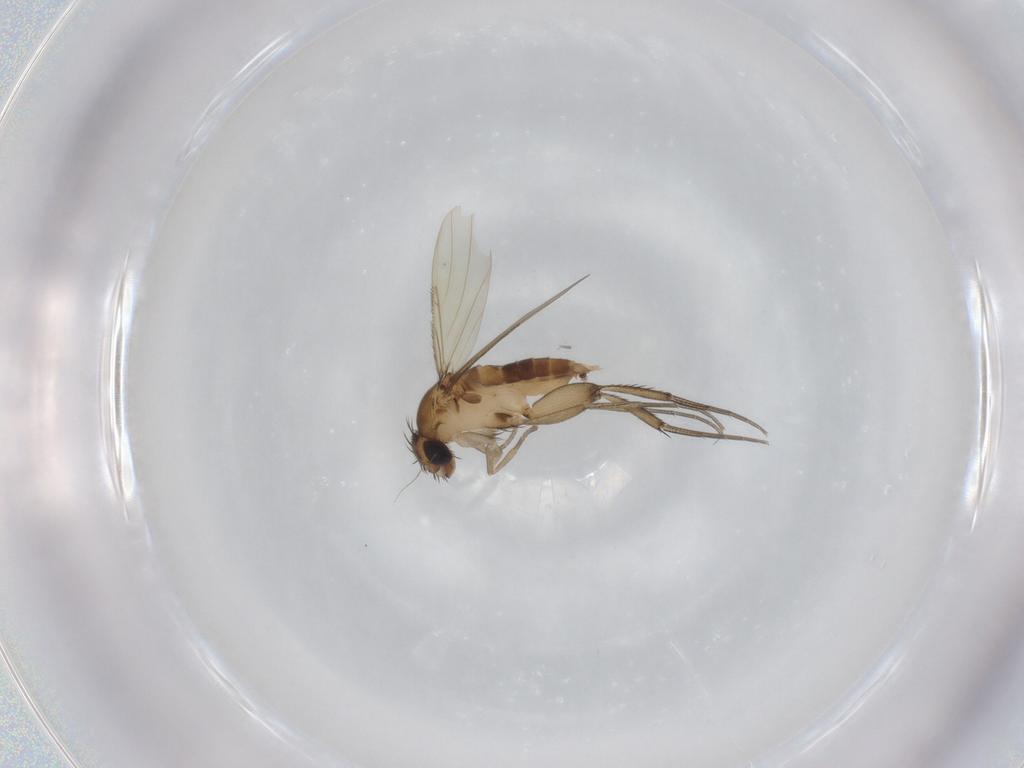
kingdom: Animalia
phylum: Arthropoda
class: Insecta
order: Diptera
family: Phoridae
